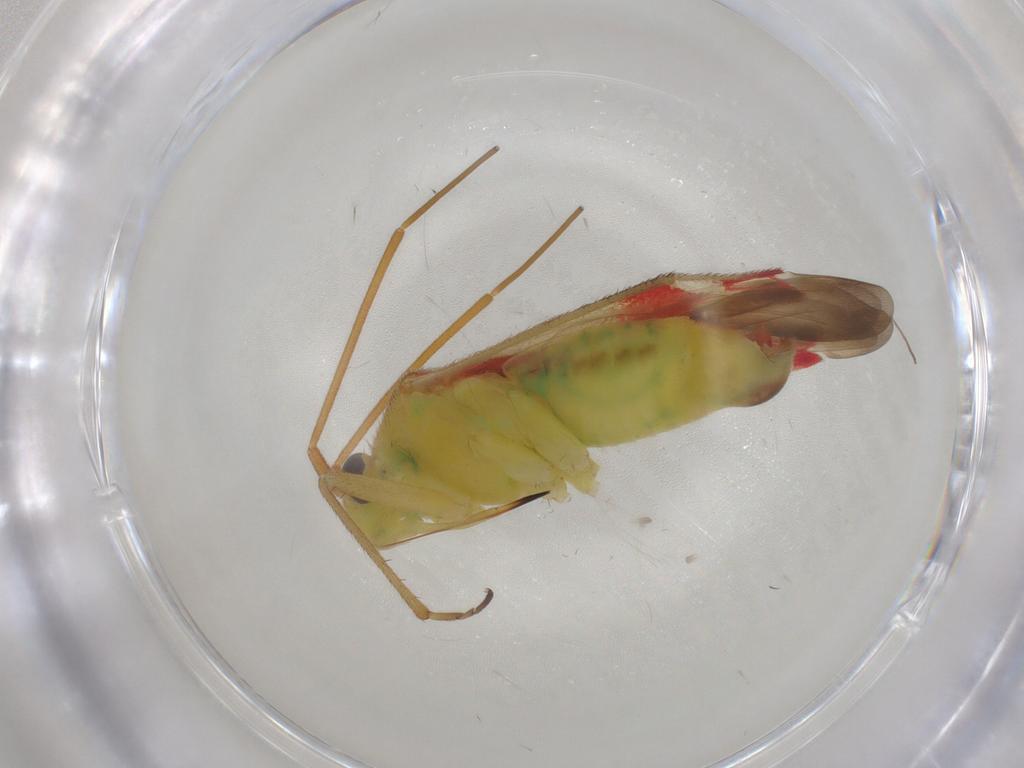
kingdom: Animalia
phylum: Arthropoda
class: Insecta
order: Hemiptera
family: Miridae
